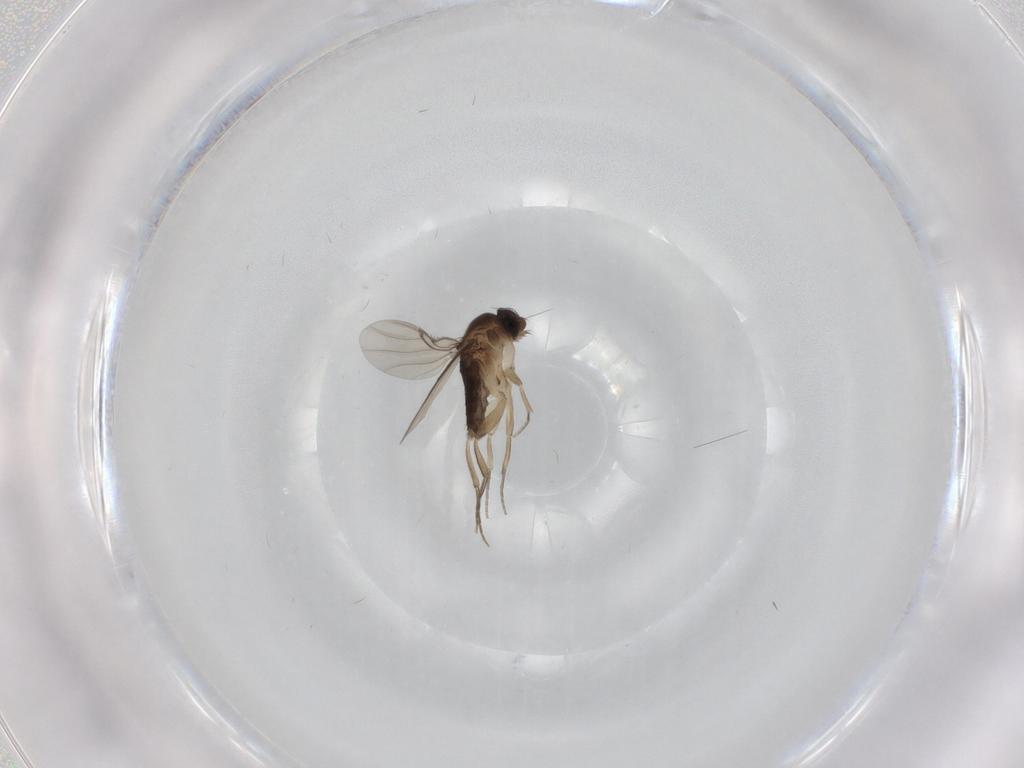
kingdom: Animalia
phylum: Arthropoda
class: Insecta
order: Diptera
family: Phoridae
